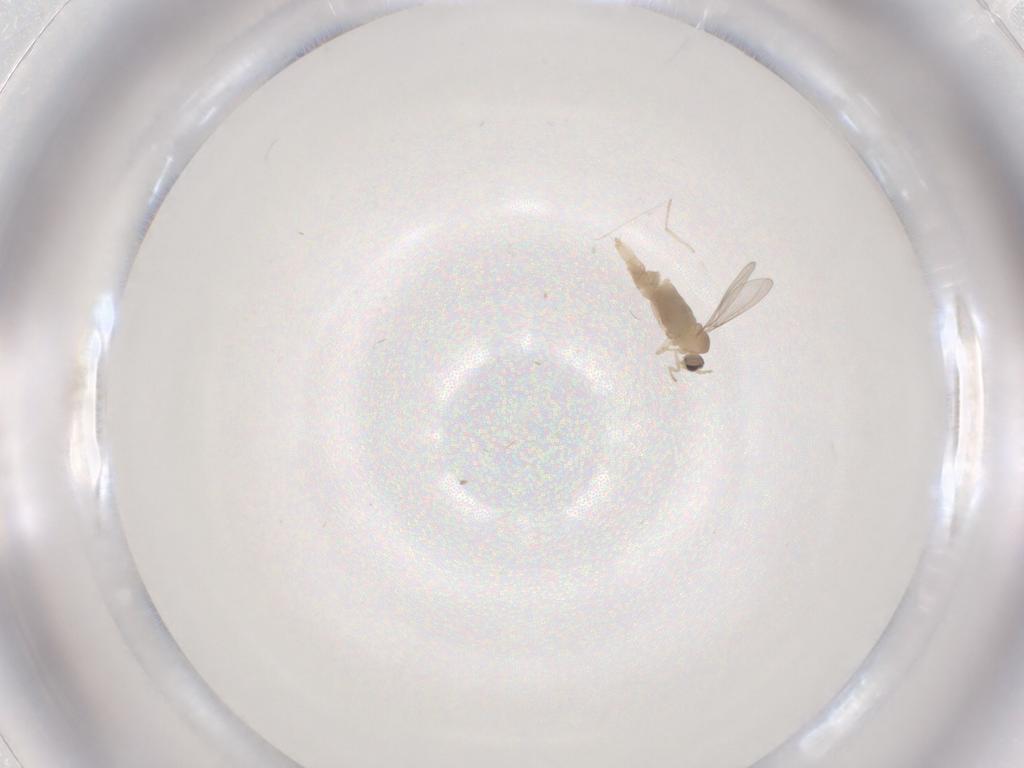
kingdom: Animalia
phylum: Arthropoda
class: Insecta
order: Diptera
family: Cecidomyiidae
